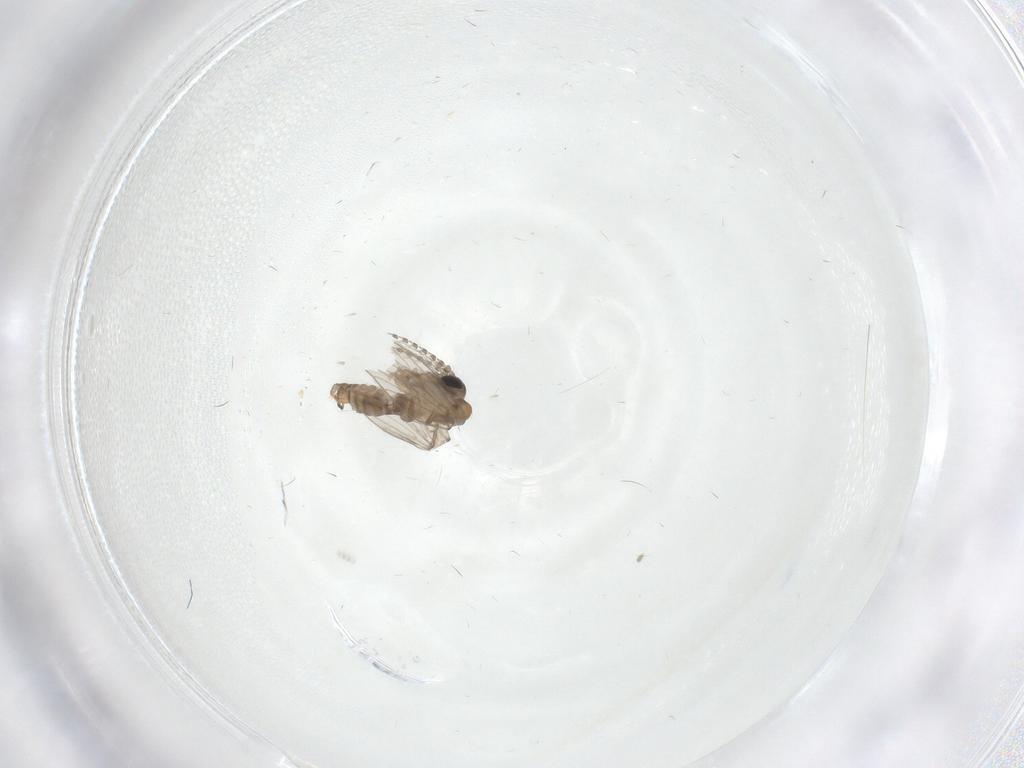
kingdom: Animalia
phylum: Arthropoda
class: Insecta
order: Diptera
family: Psychodidae
